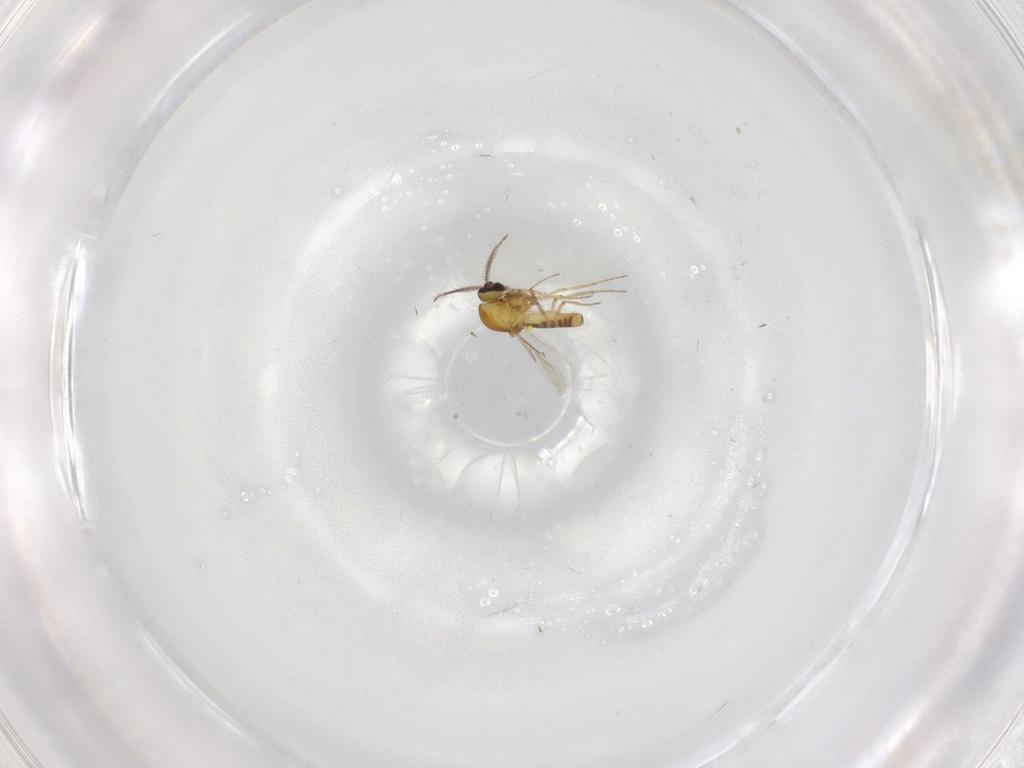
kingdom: Animalia
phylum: Arthropoda
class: Insecta
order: Diptera
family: Ceratopogonidae
